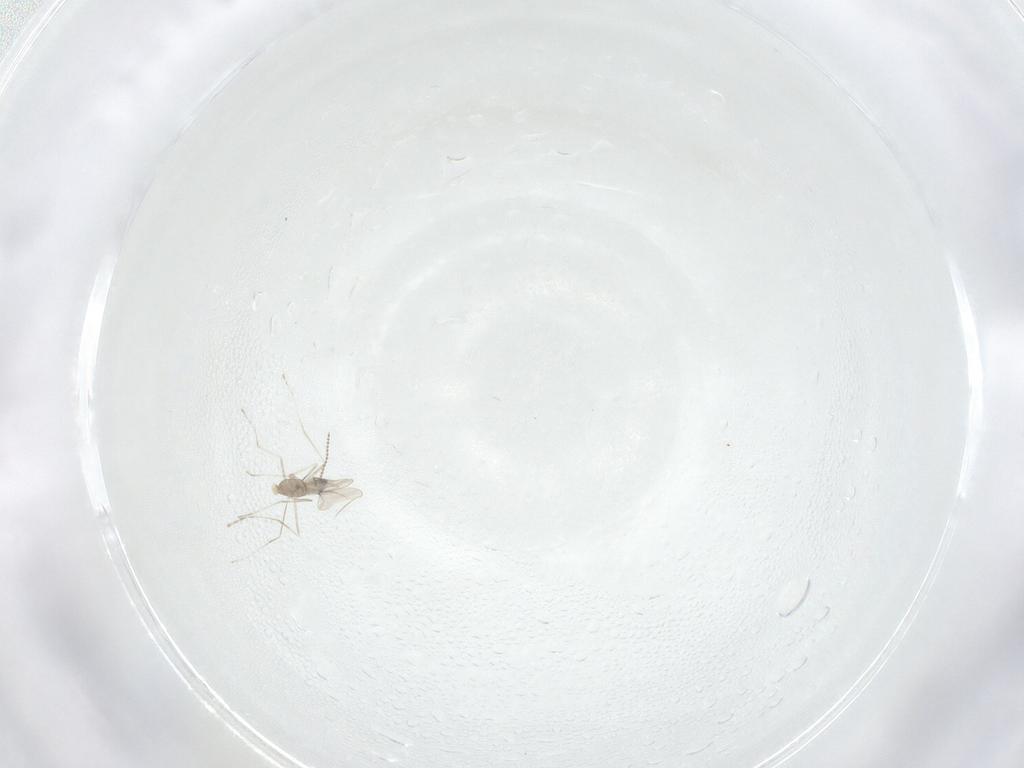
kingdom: Animalia
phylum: Arthropoda
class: Insecta
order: Diptera
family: Cecidomyiidae
